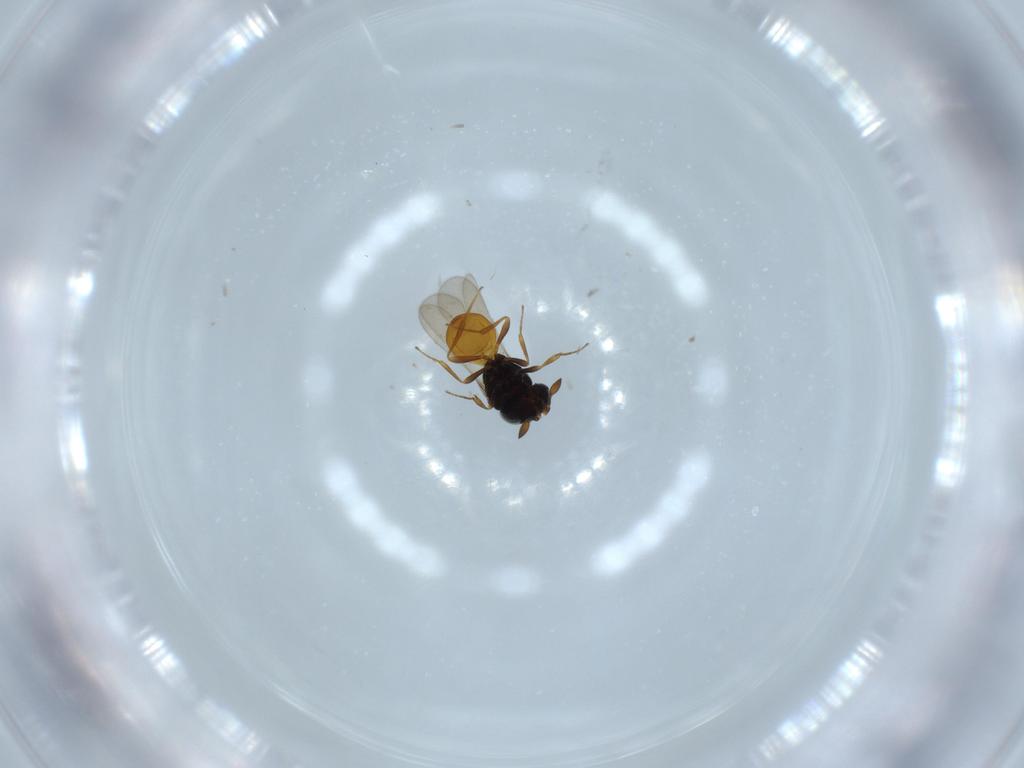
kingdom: Animalia
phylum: Arthropoda
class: Insecta
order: Hymenoptera
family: Scelionidae
